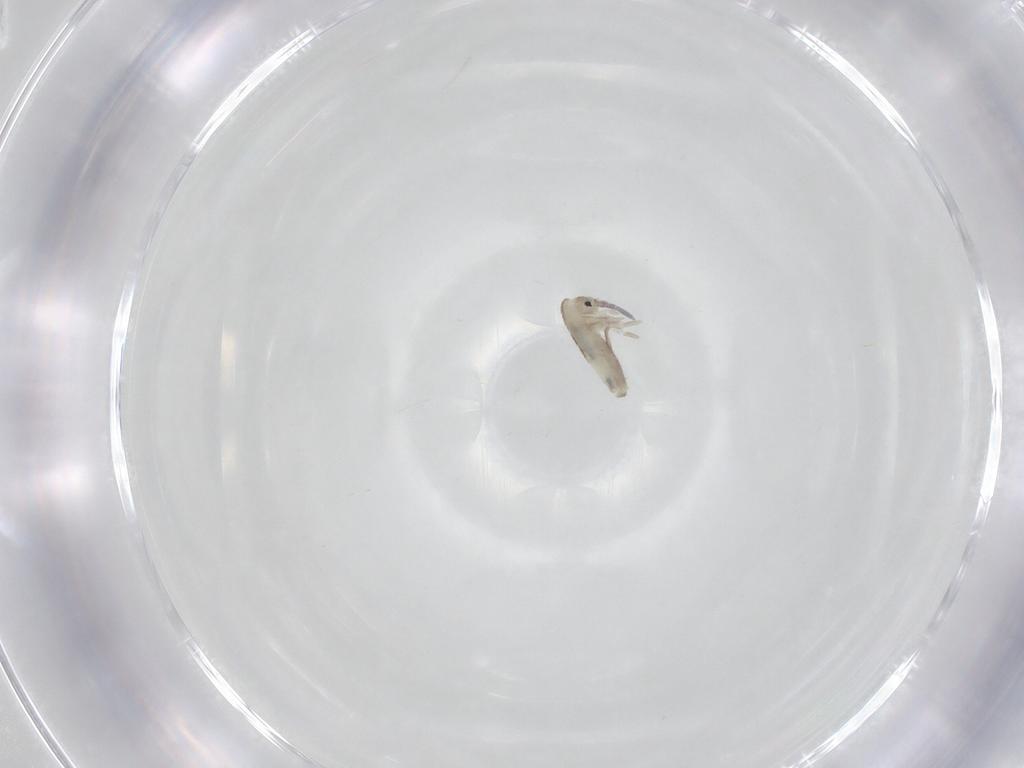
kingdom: Animalia
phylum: Arthropoda
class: Collembola
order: Entomobryomorpha
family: Entomobryidae
